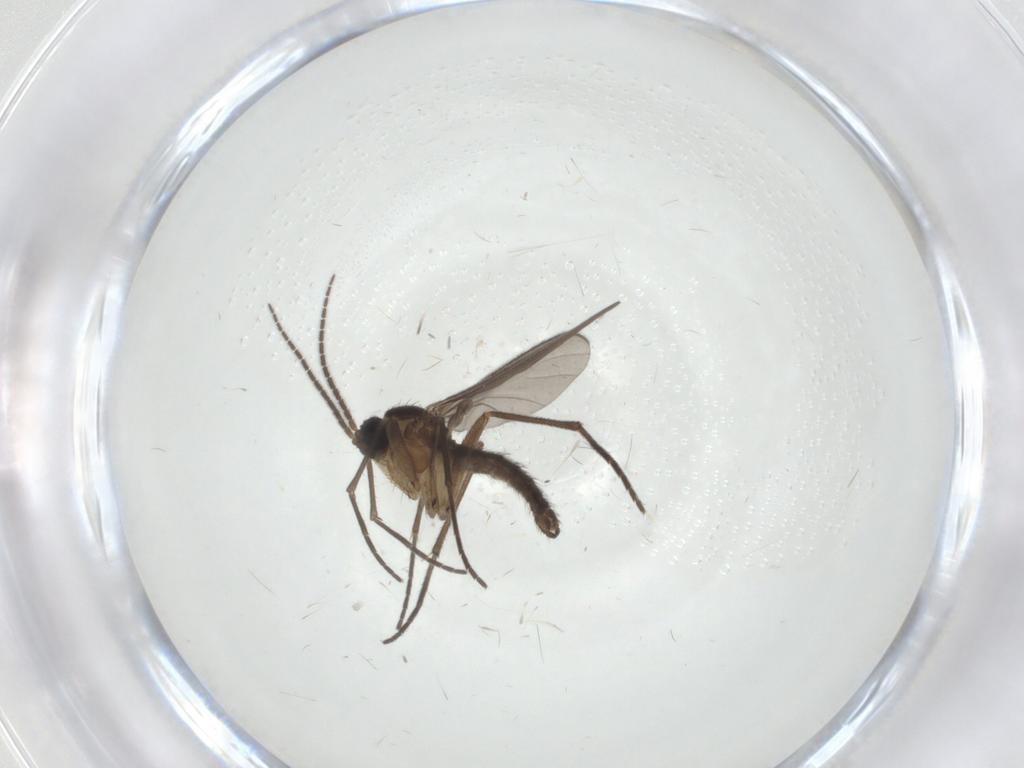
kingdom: Animalia
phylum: Arthropoda
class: Insecta
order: Diptera
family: Sciaridae
